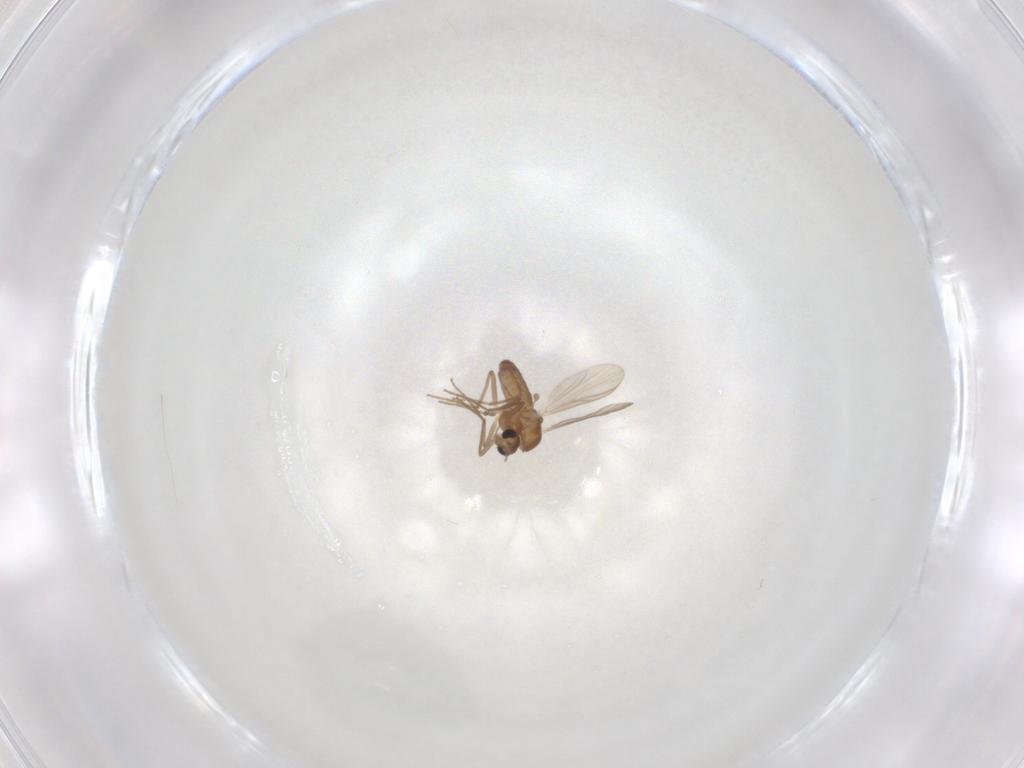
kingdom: Animalia
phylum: Arthropoda
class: Insecta
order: Diptera
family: Chironomidae
